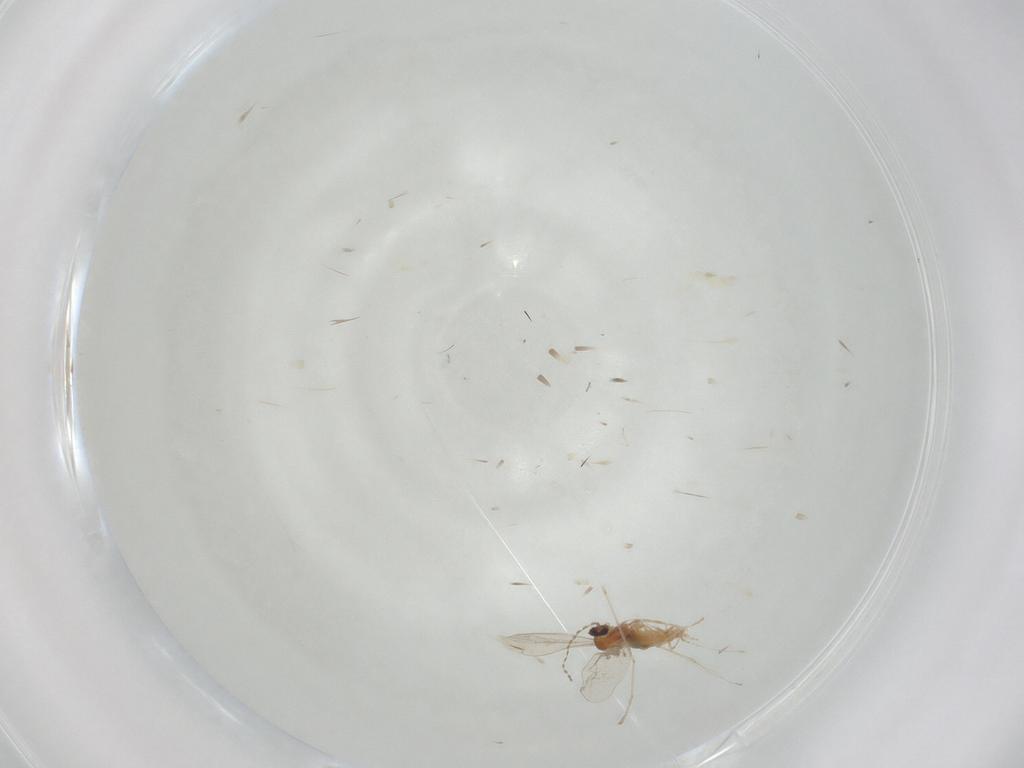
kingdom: Animalia
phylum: Arthropoda
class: Insecta
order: Diptera
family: Cecidomyiidae
